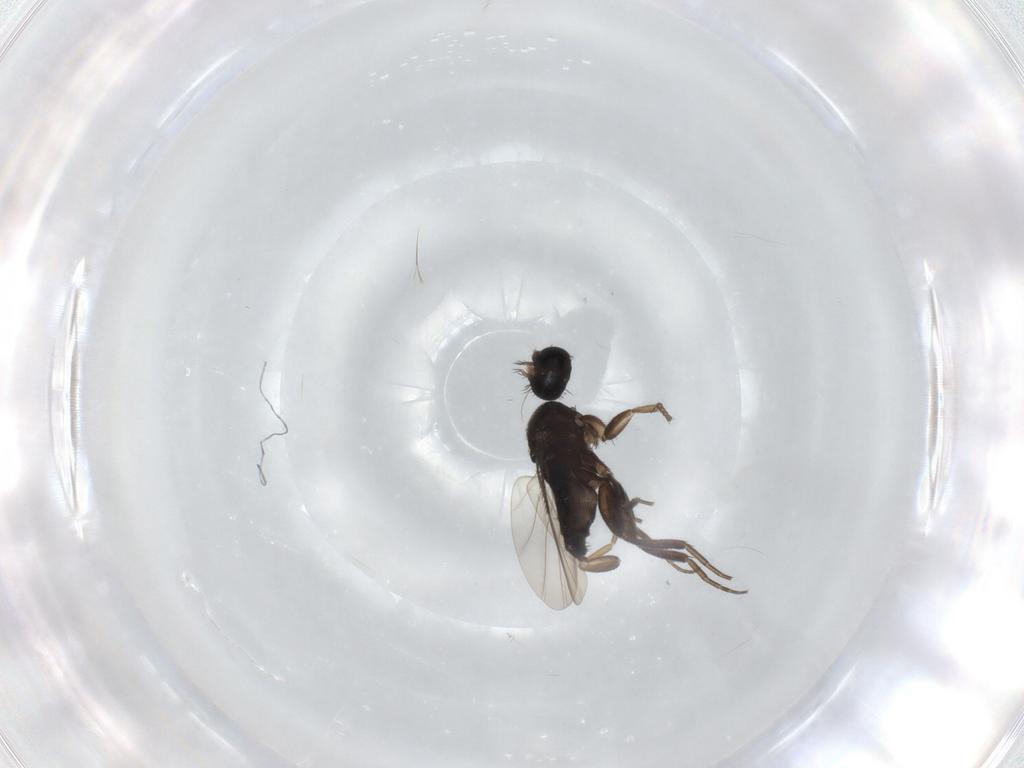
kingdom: Animalia
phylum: Arthropoda
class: Insecta
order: Diptera
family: Phoridae
